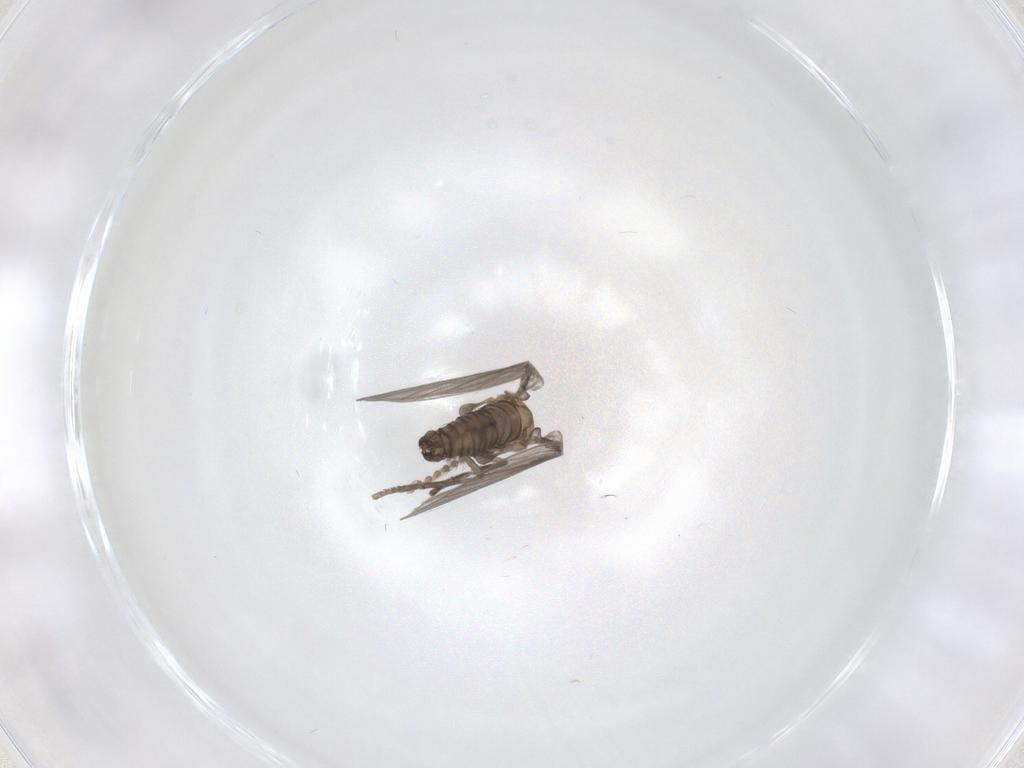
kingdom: Animalia
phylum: Arthropoda
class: Insecta
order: Diptera
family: Psychodidae
